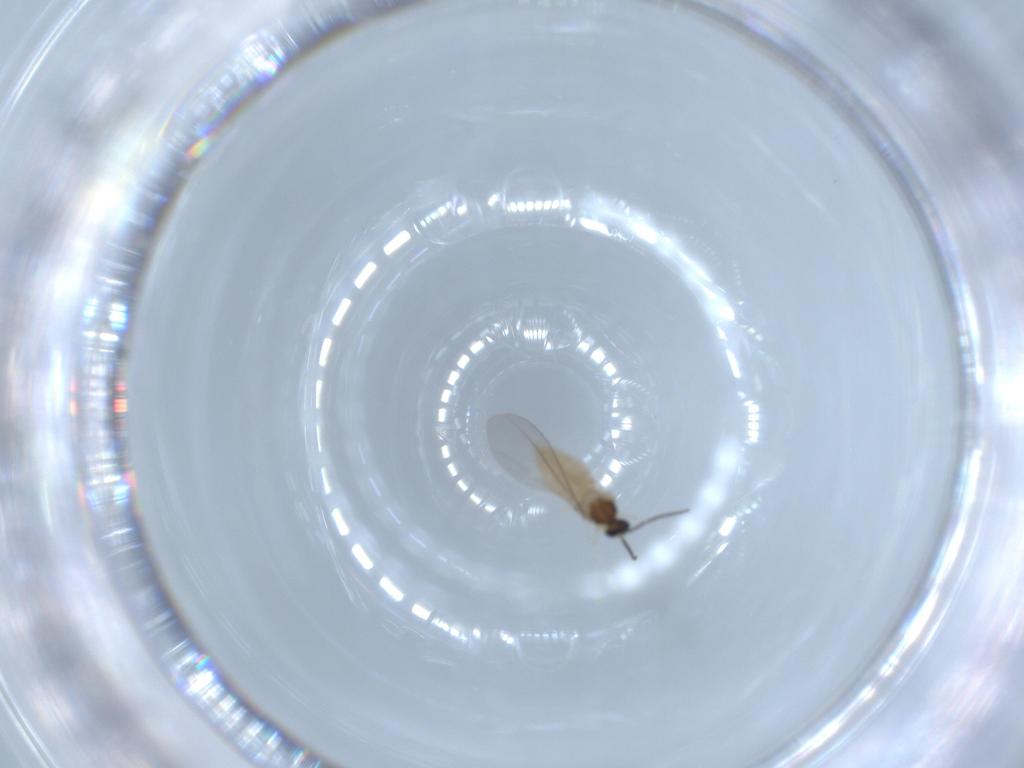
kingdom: Animalia
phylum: Arthropoda
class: Insecta
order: Diptera
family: Cecidomyiidae
